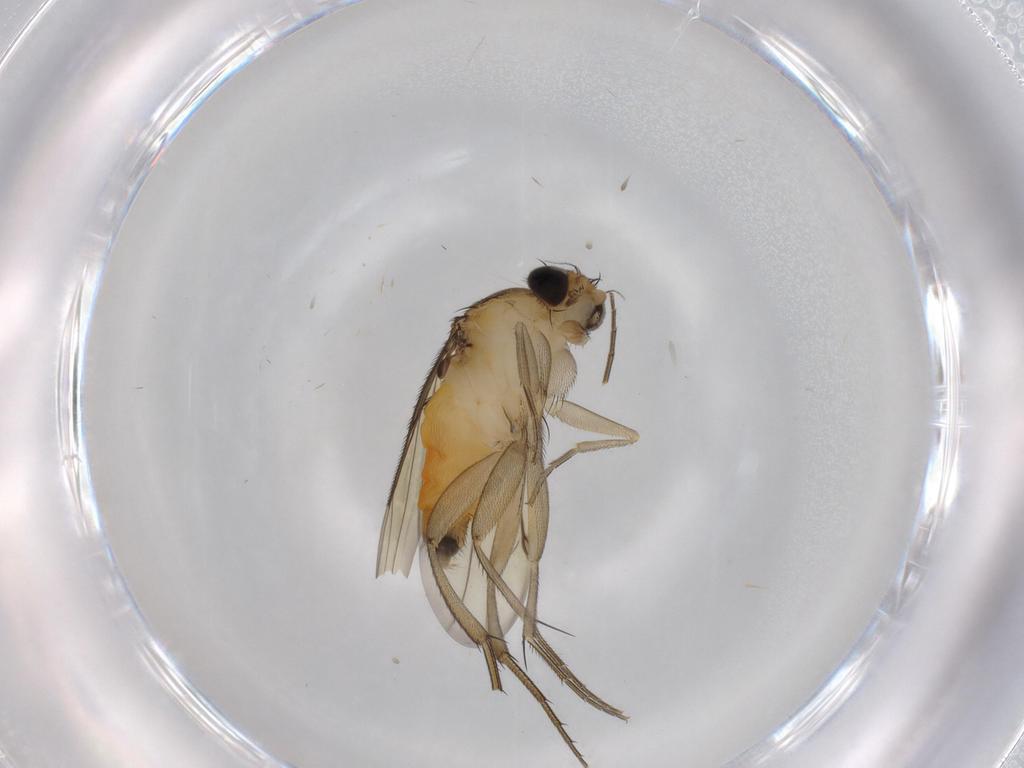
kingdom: Animalia
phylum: Arthropoda
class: Insecta
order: Diptera
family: Phoridae
